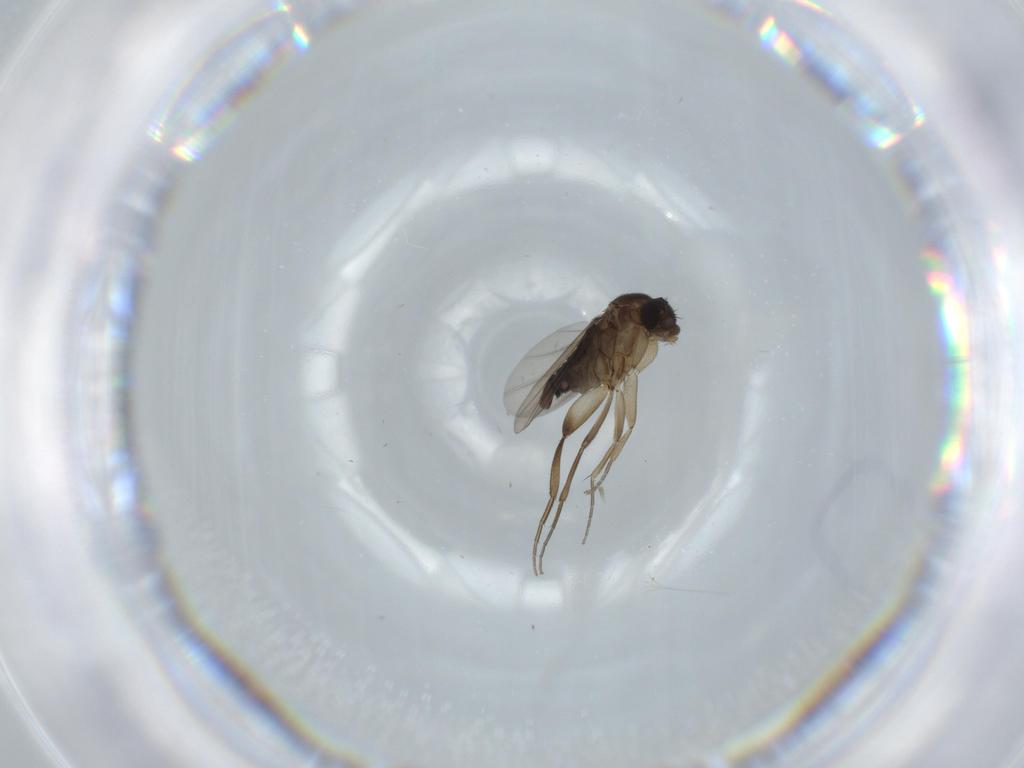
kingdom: Animalia
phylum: Arthropoda
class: Insecta
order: Diptera
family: Phoridae
